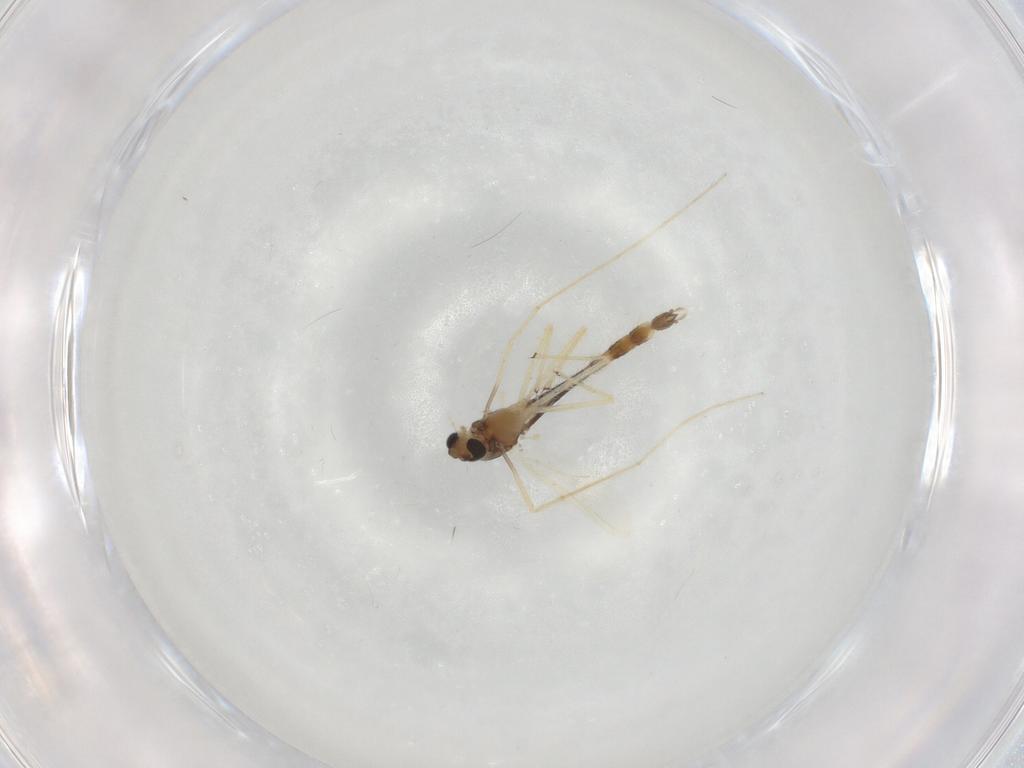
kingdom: Animalia
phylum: Arthropoda
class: Insecta
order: Diptera
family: Chironomidae
